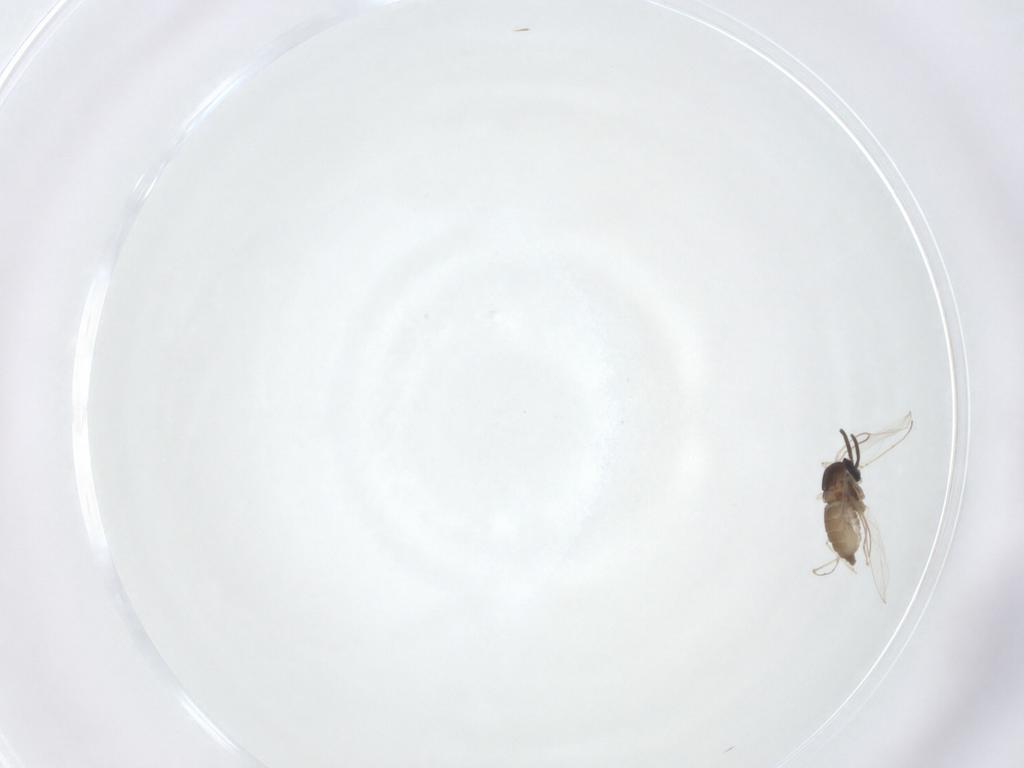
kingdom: Animalia
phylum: Arthropoda
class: Insecta
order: Diptera
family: Cecidomyiidae
